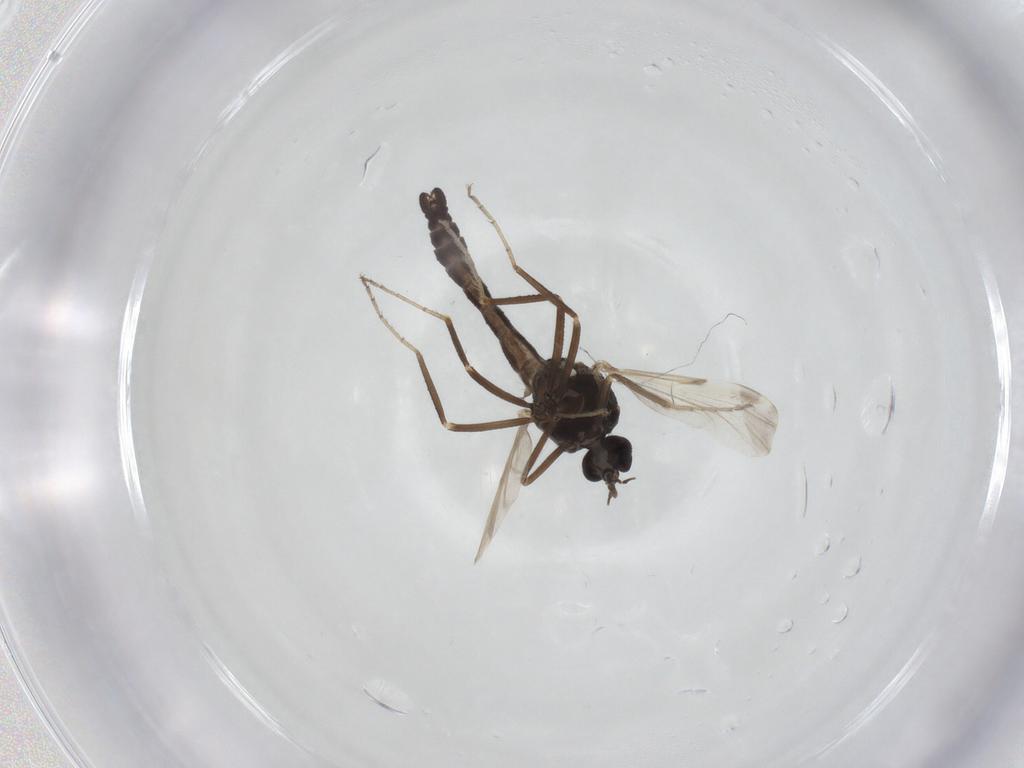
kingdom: Animalia
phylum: Arthropoda
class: Insecta
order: Diptera
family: Ceratopogonidae
